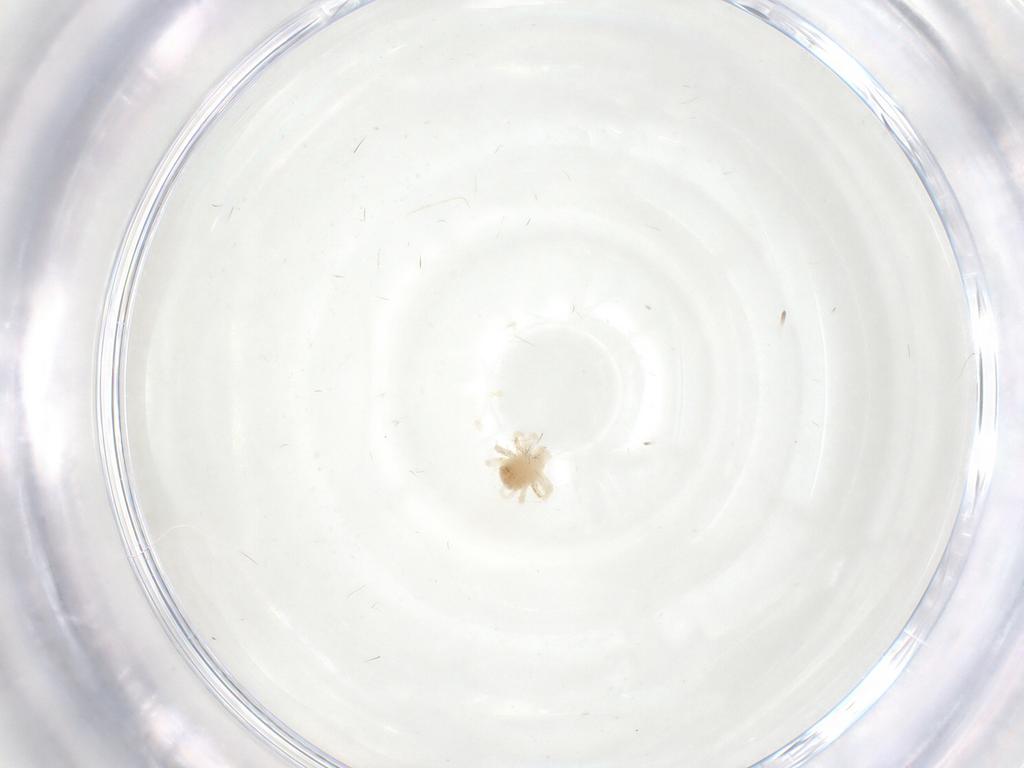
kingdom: Animalia
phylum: Arthropoda
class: Arachnida
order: Trombidiformes
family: Anystidae
